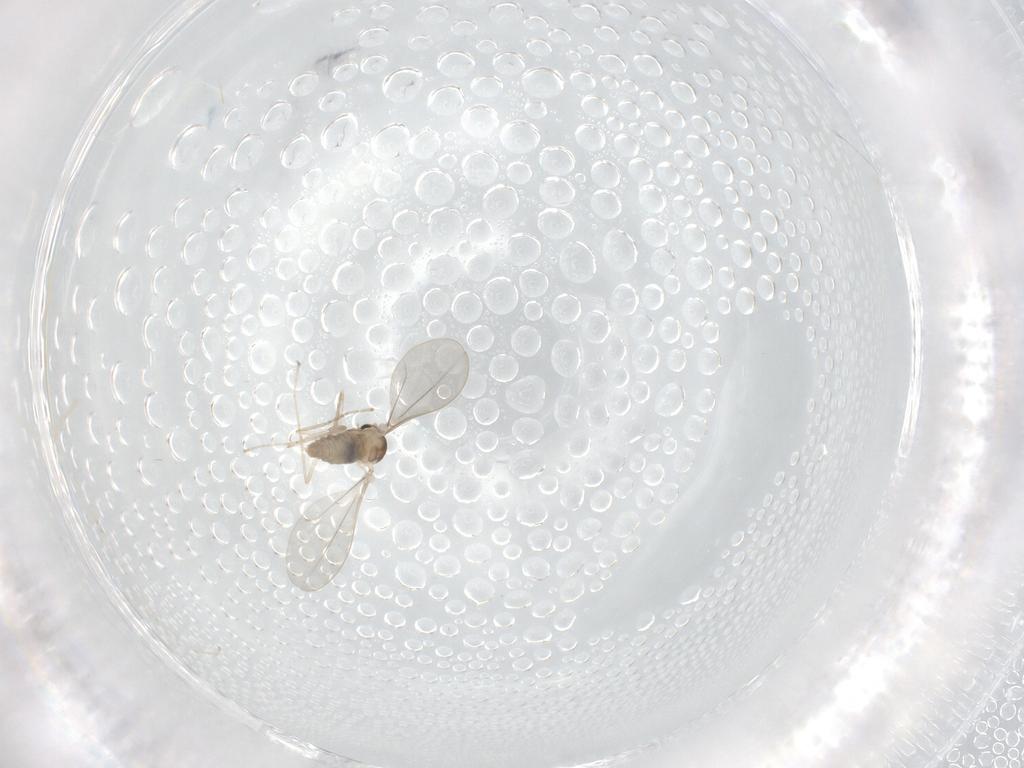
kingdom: Animalia
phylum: Arthropoda
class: Insecta
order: Diptera
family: Cecidomyiidae
